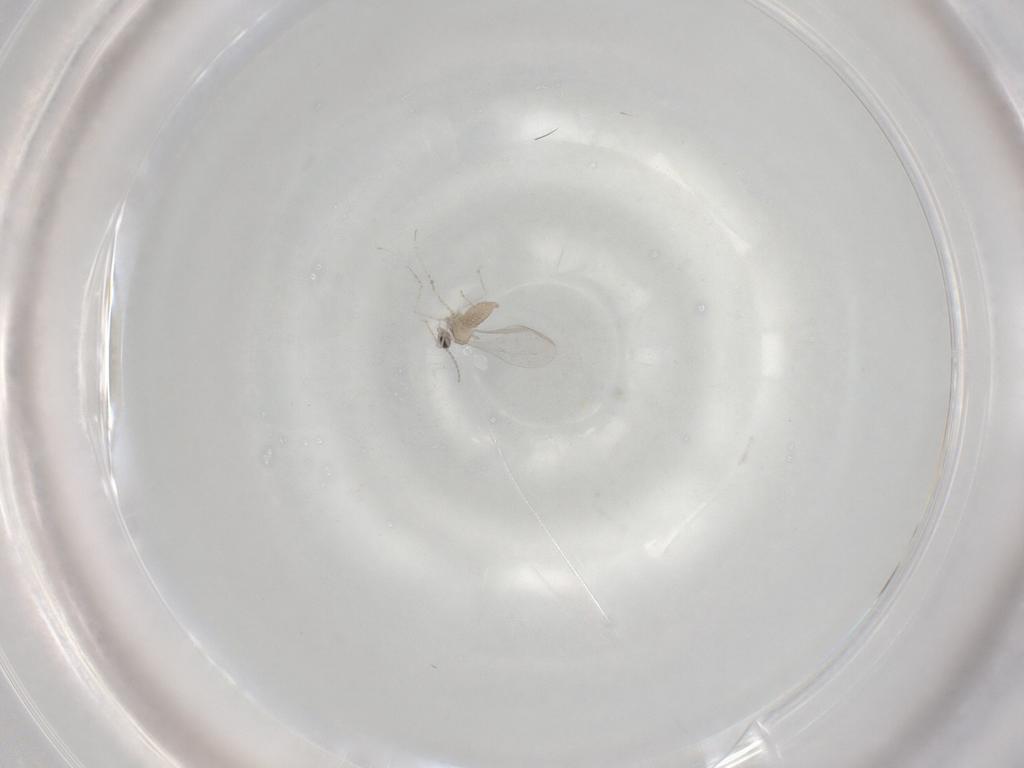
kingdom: Animalia
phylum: Arthropoda
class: Insecta
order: Diptera
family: Cecidomyiidae
